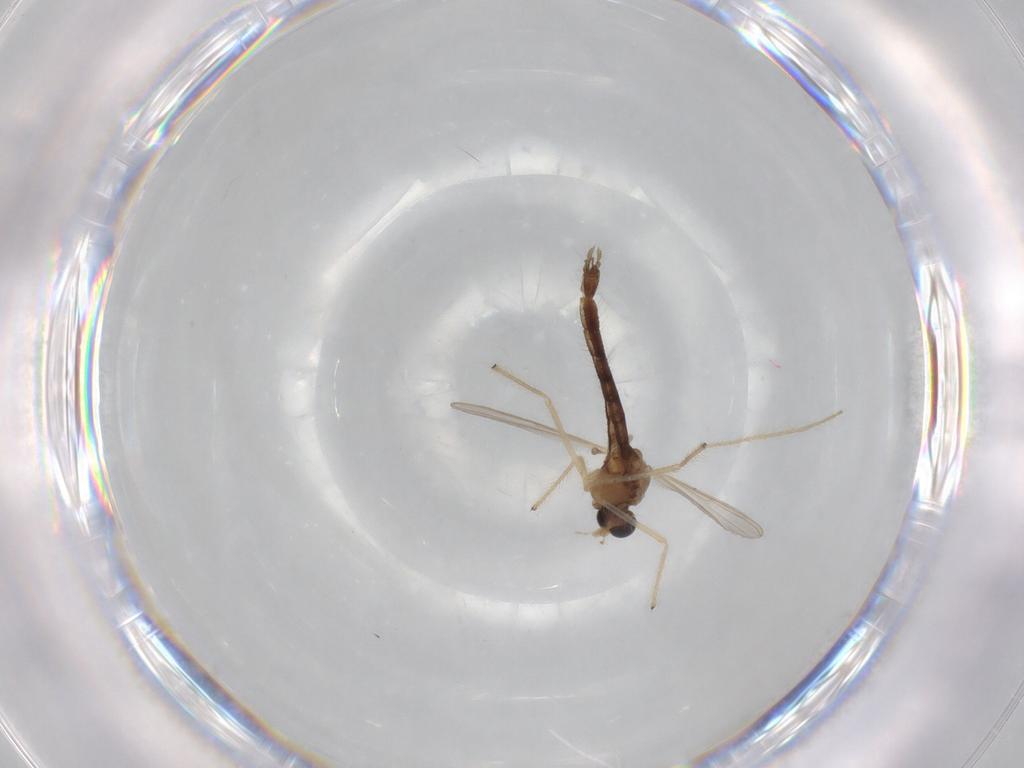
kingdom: Animalia
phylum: Arthropoda
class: Insecta
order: Diptera
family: Chironomidae
